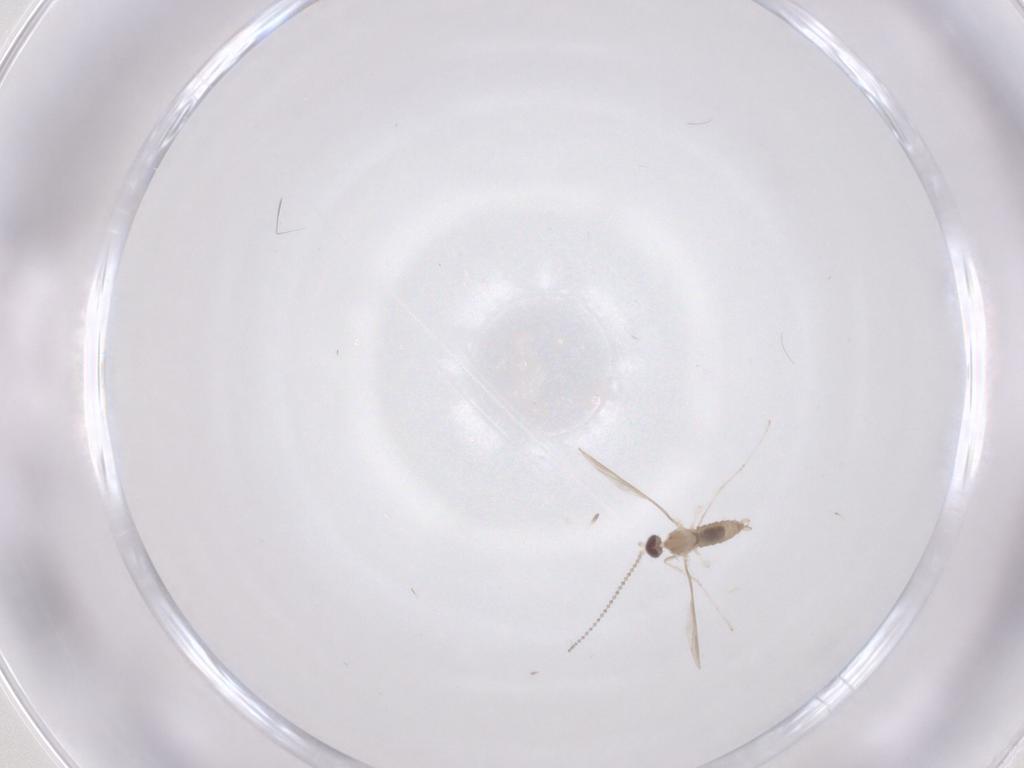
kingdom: Animalia
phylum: Arthropoda
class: Insecta
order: Diptera
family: Cecidomyiidae
